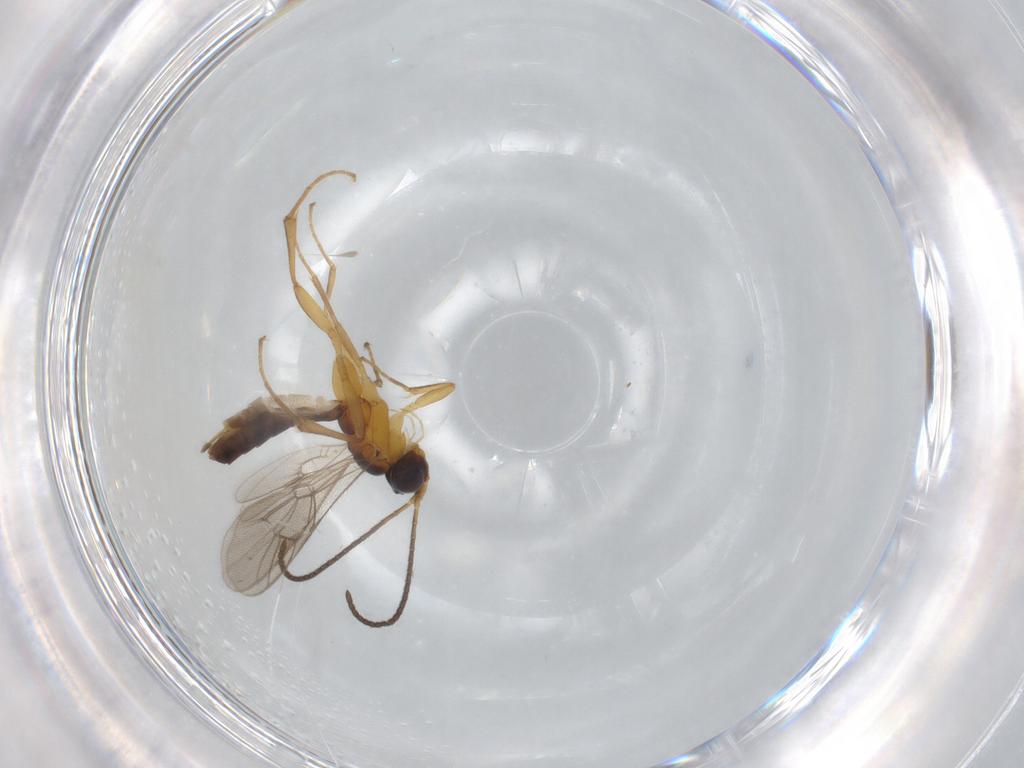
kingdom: Animalia
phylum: Arthropoda
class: Insecta
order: Hymenoptera
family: Ichneumonidae
